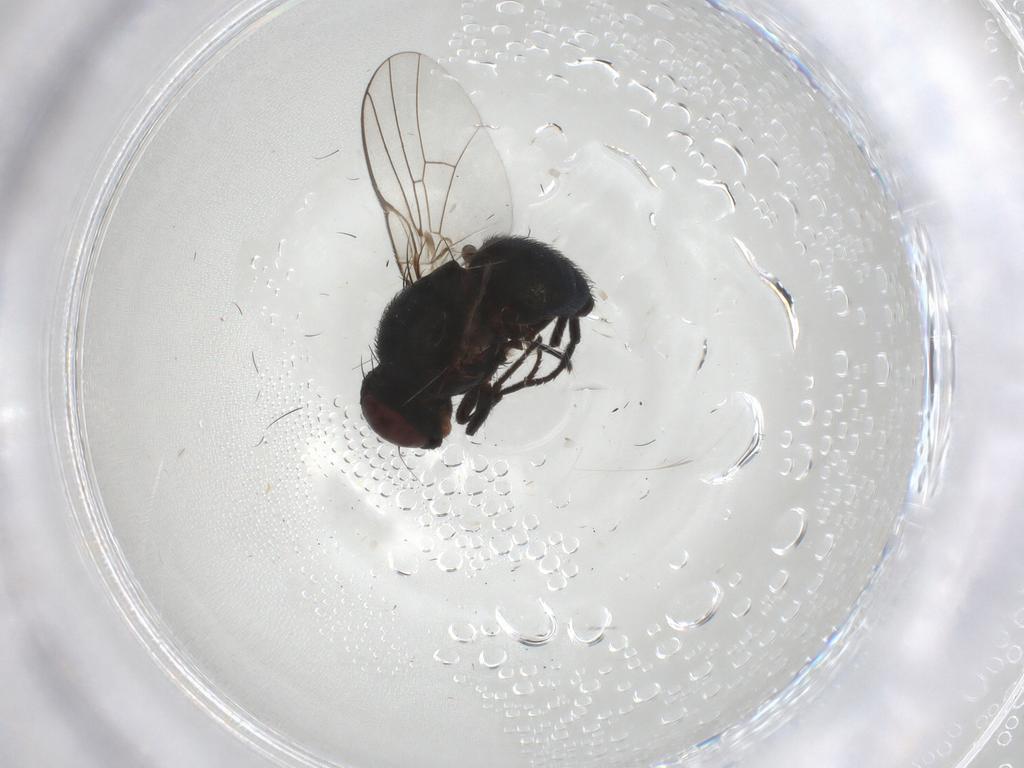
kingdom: Animalia
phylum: Arthropoda
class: Insecta
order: Diptera
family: Agromyzidae
